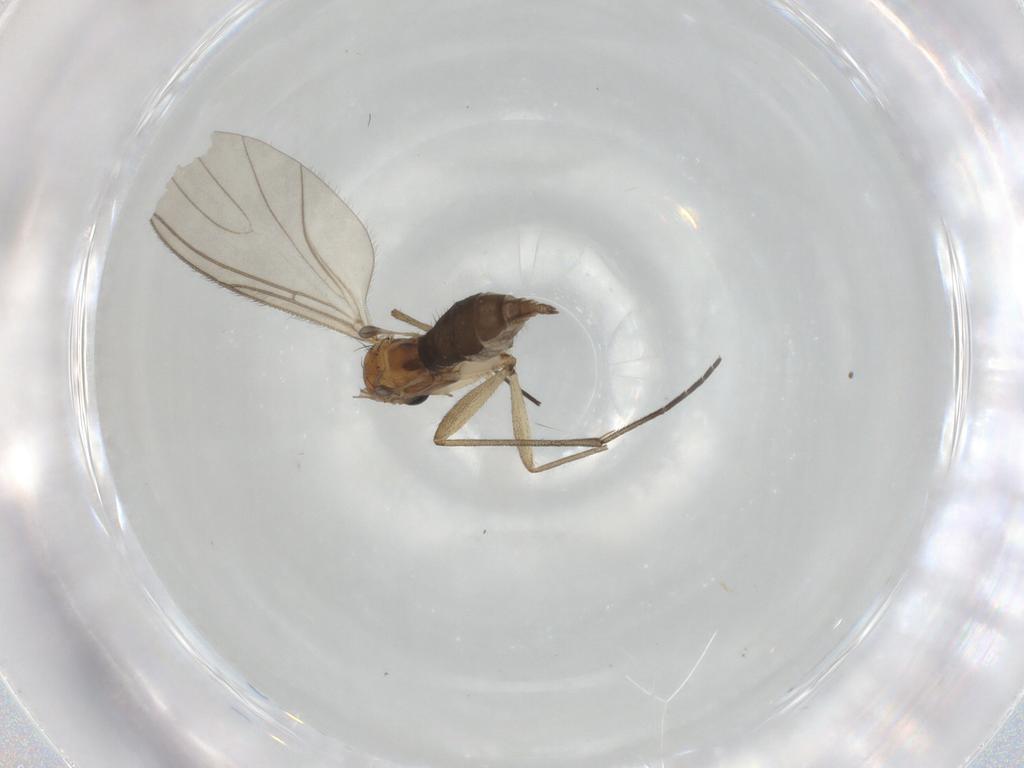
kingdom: Animalia
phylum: Arthropoda
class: Insecta
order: Diptera
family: Sciaridae
